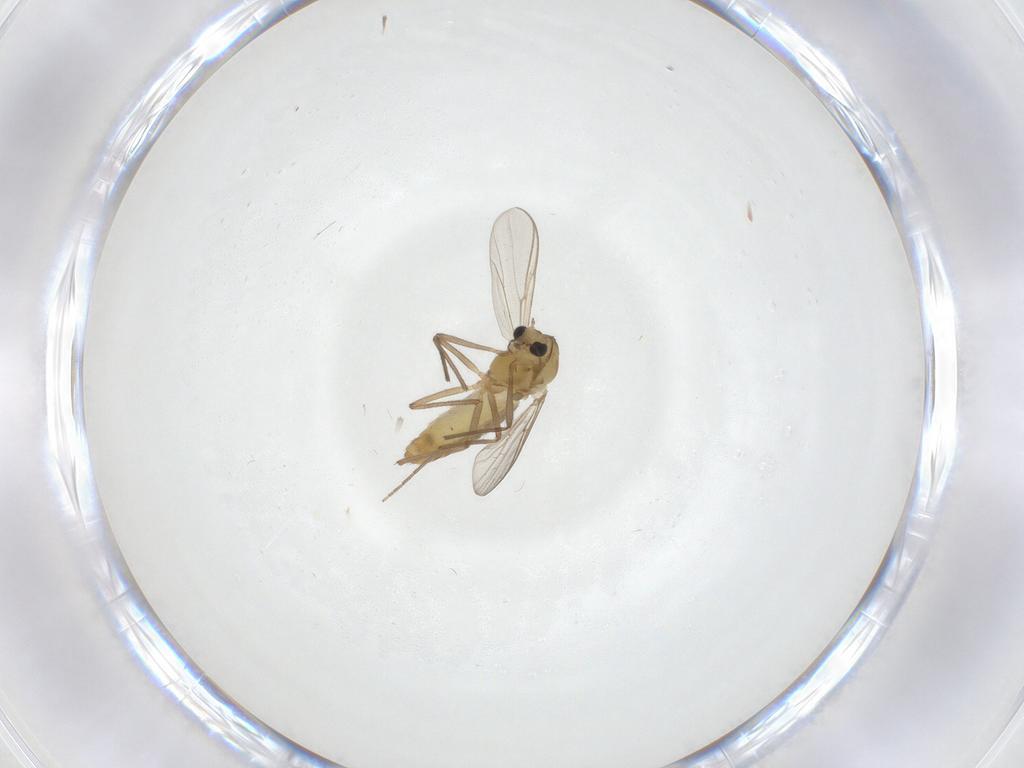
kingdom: Animalia
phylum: Arthropoda
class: Insecta
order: Diptera
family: Chironomidae
